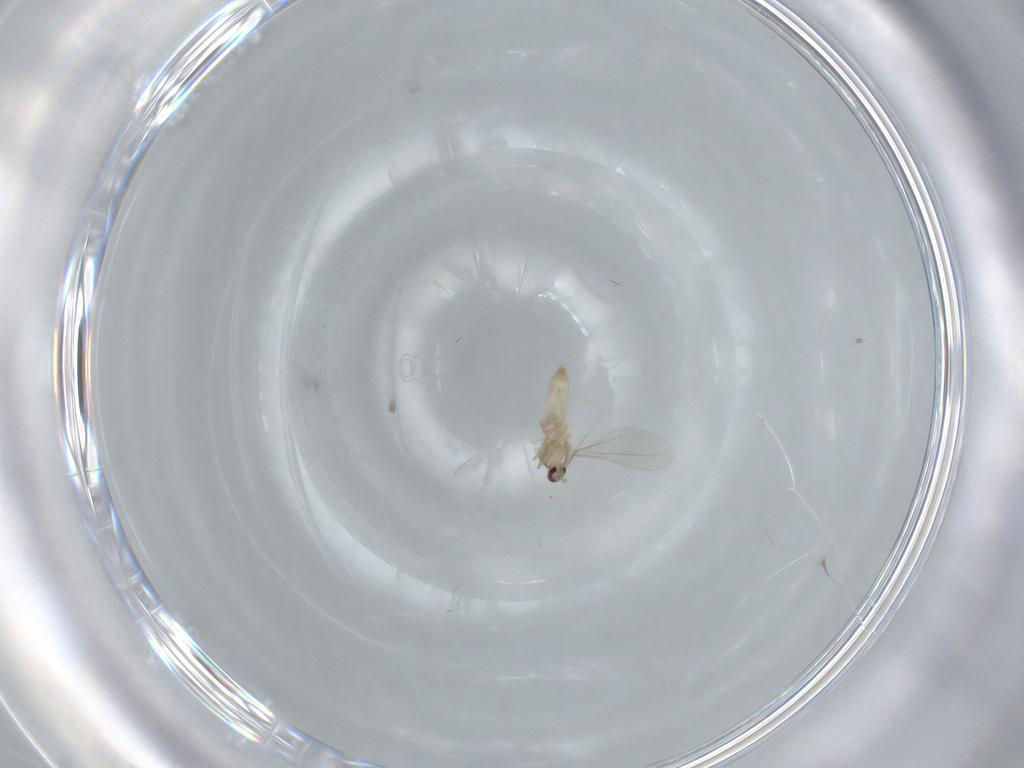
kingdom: Animalia
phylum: Arthropoda
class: Insecta
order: Diptera
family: Cecidomyiidae
